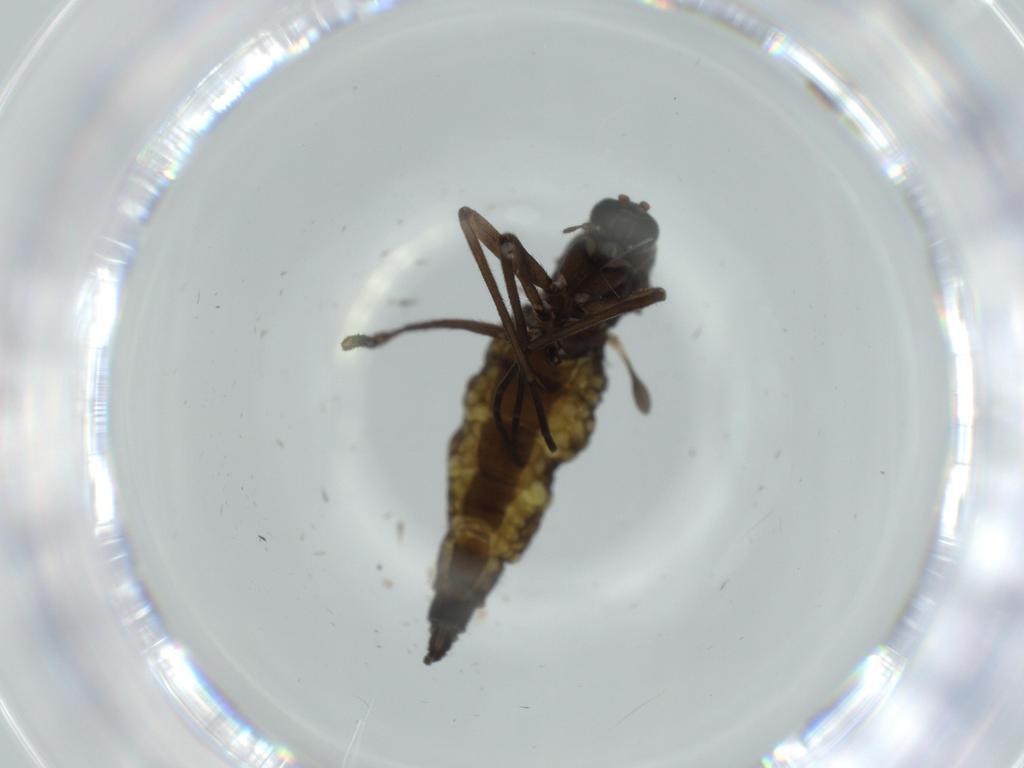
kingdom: Animalia
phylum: Arthropoda
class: Insecta
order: Diptera
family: Sciaridae
